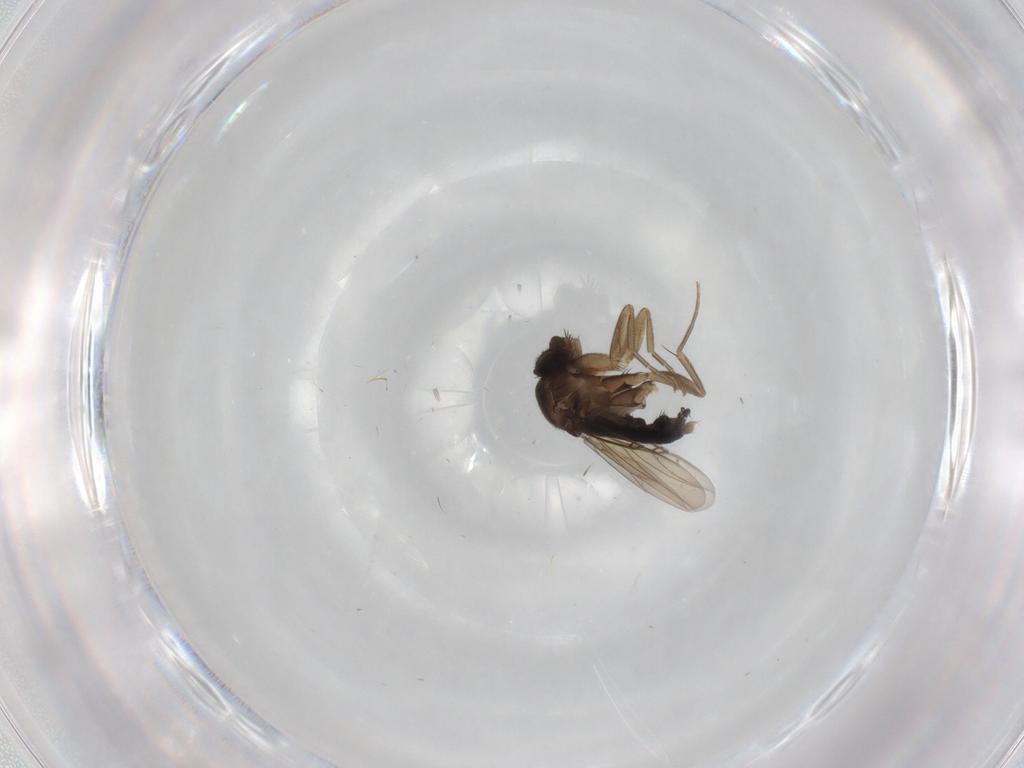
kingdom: Animalia
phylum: Arthropoda
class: Insecta
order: Diptera
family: Phoridae
